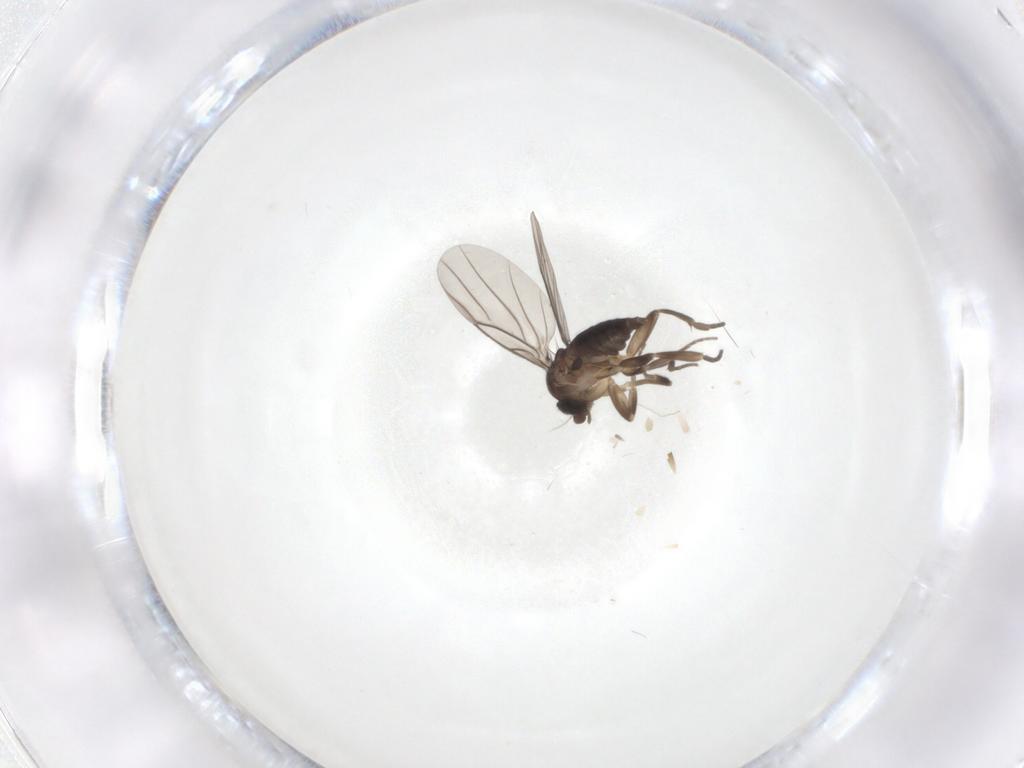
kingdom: Animalia
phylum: Arthropoda
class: Insecta
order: Diptera
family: Phoridae
